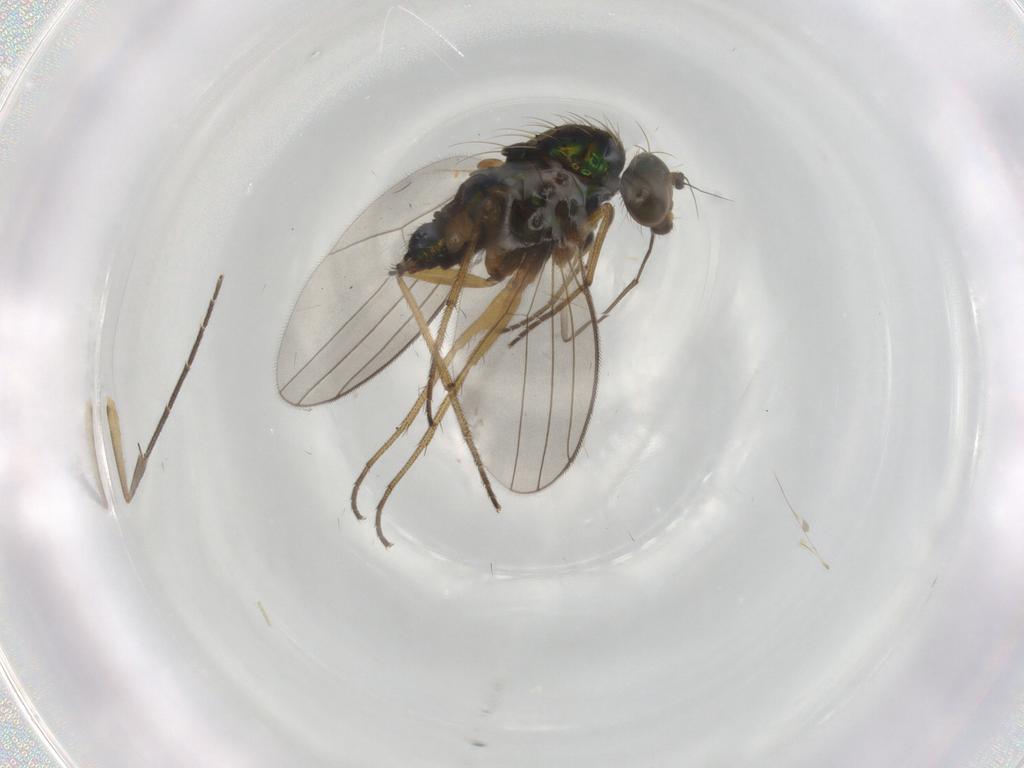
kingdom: Animalia
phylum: Arthropoda
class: Insecta
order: Diptera
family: Dolichopodidae
